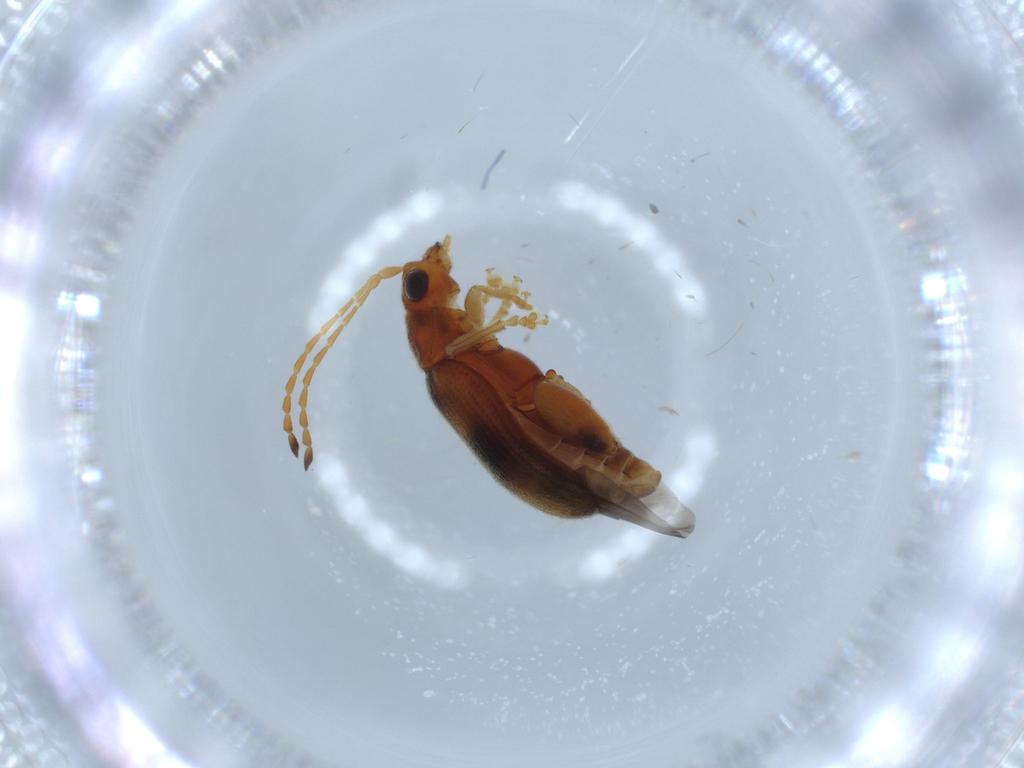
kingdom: Animalia
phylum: Arthropoda
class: Insecta
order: Coleoptera
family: Chrysomelidae
